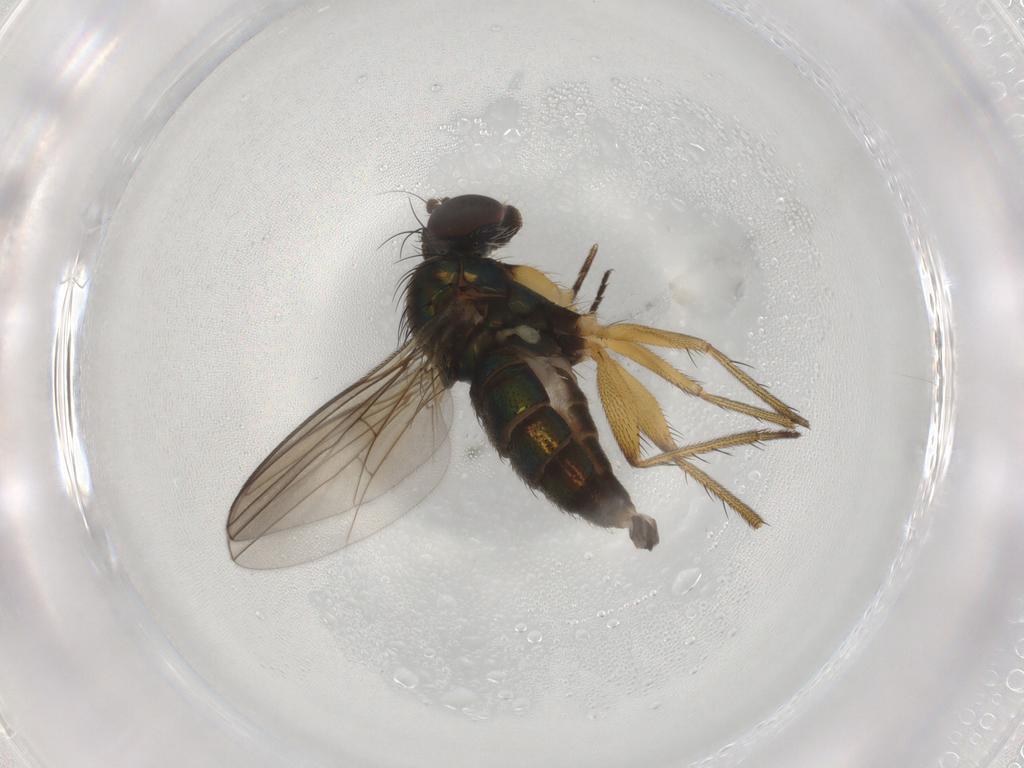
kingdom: Animalia
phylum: Arthropoda
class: Insecta
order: Diptera
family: Dolichopodidae
